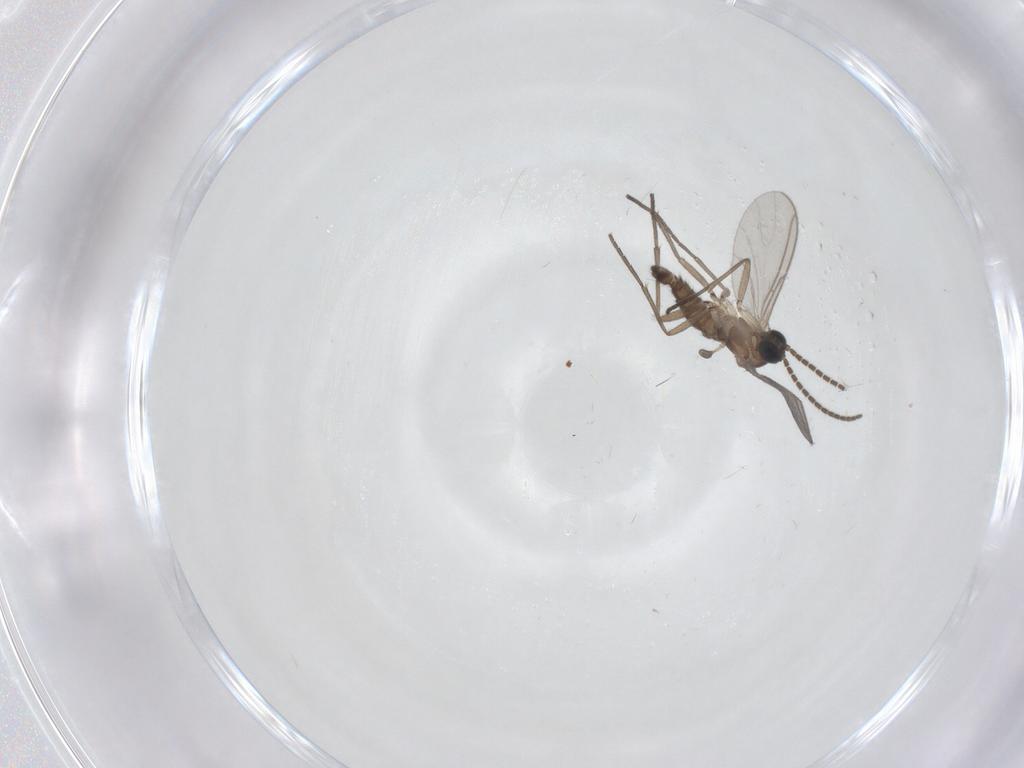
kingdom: Animalia
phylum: Arthropoda
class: Insecta
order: Diptera
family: Sciaridae
